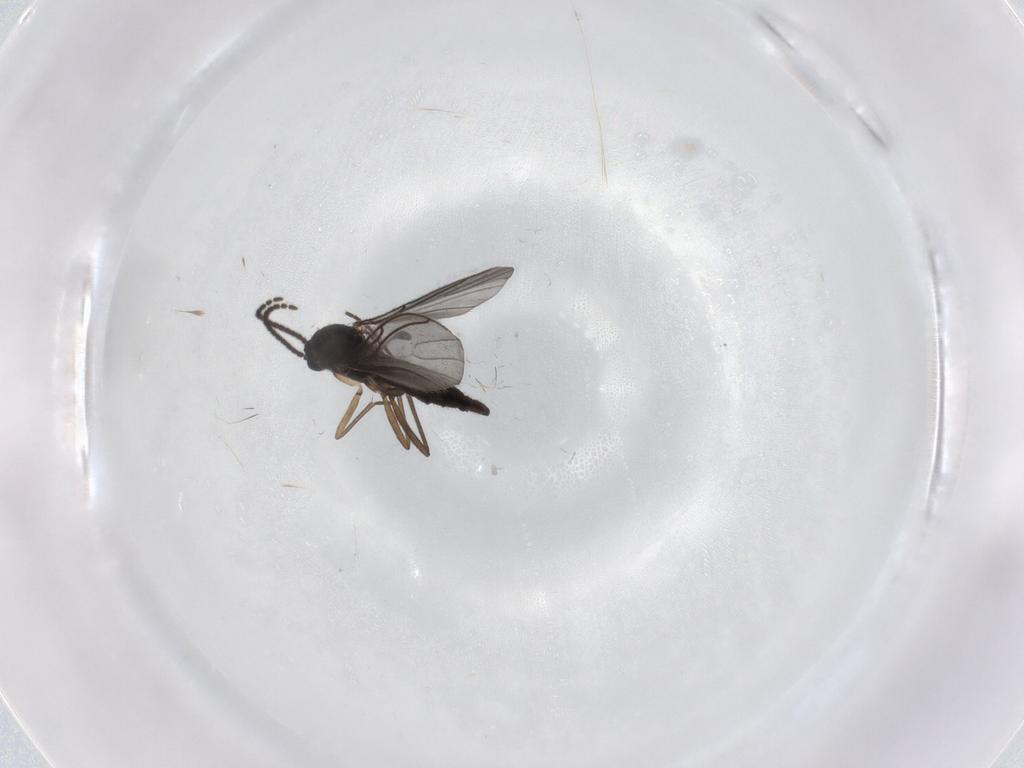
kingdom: Animalia
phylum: Arthropoda
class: Insecta
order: Diptera
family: Sciaridae
